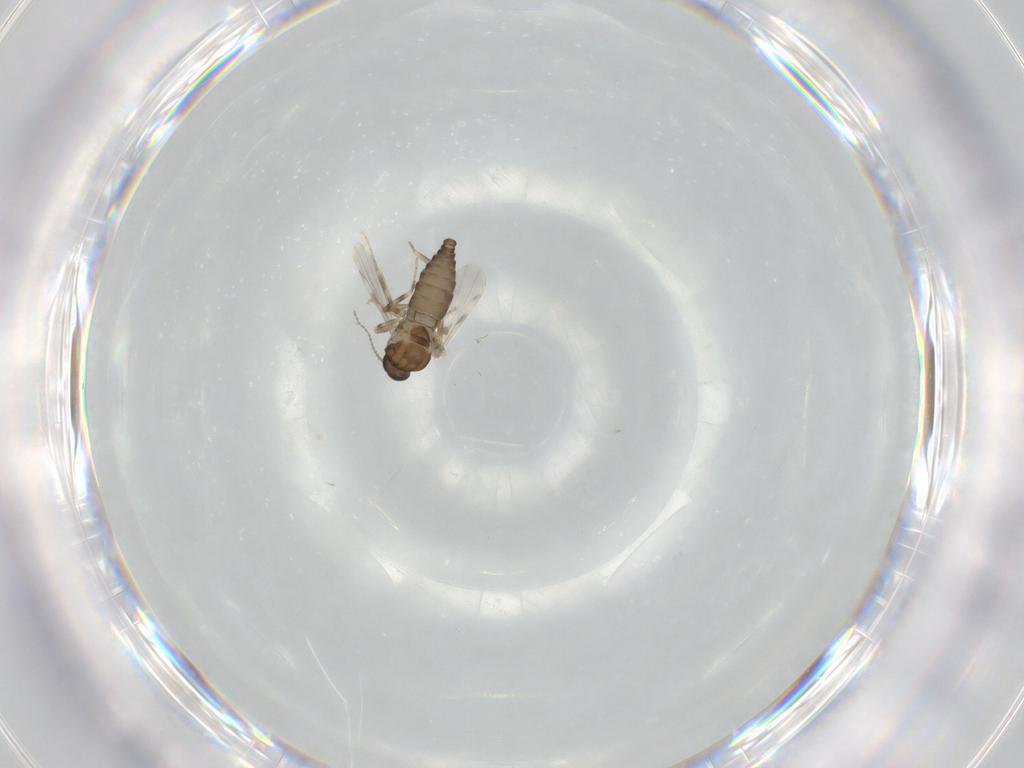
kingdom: Animalia
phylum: Arthropoda
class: Insecta
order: Diptera
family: Ceratopogonidae
